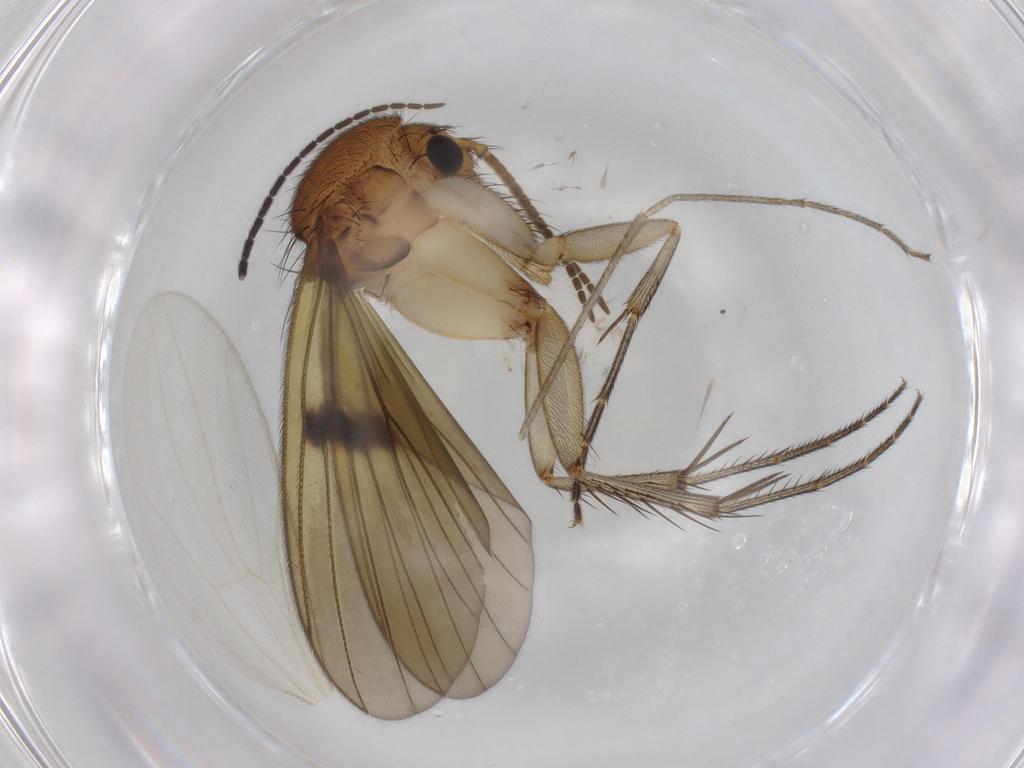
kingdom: Animalia
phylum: Arthropoda
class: Insecta
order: Diptera
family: Mycetophilidae
